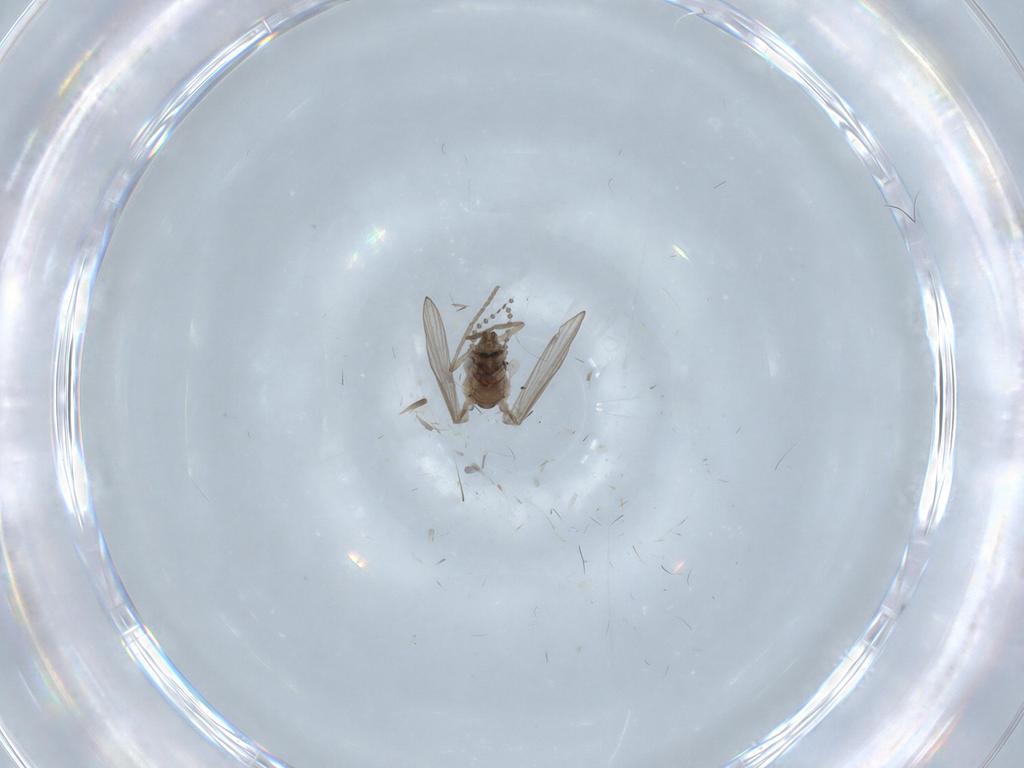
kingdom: Animalia
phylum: Arthropoda
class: Insecta
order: Diptera
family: Psychodidae
